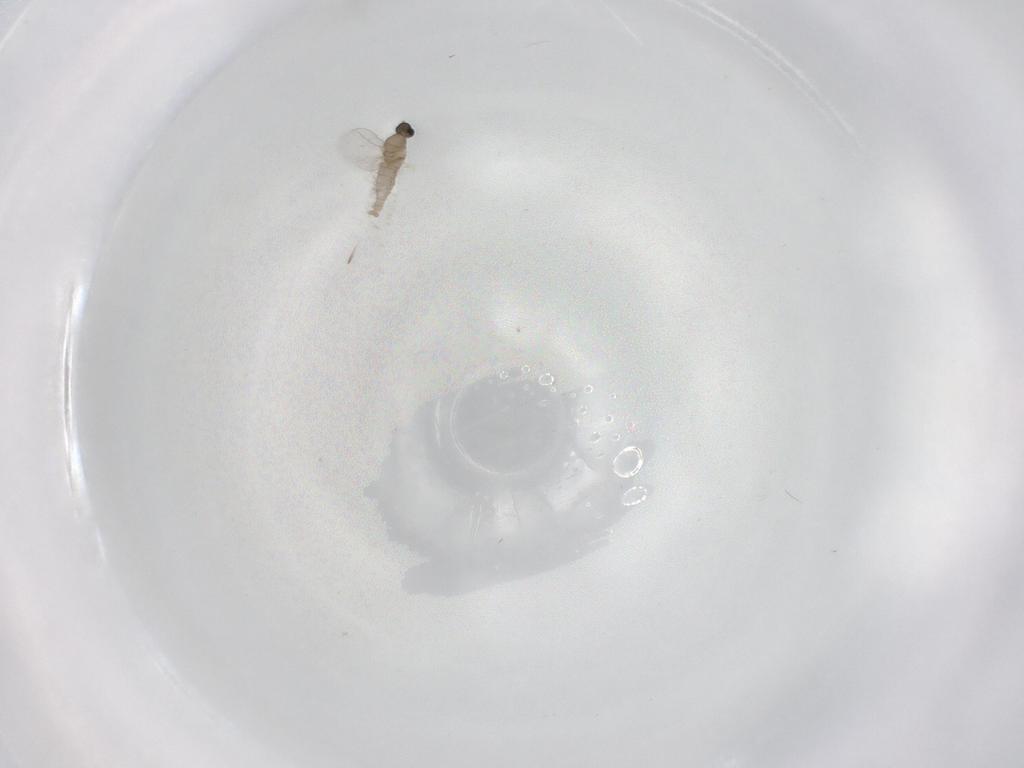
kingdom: Animalia
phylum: Arthropoda
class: Insecta
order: Diptera
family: Cecidomyiidae
